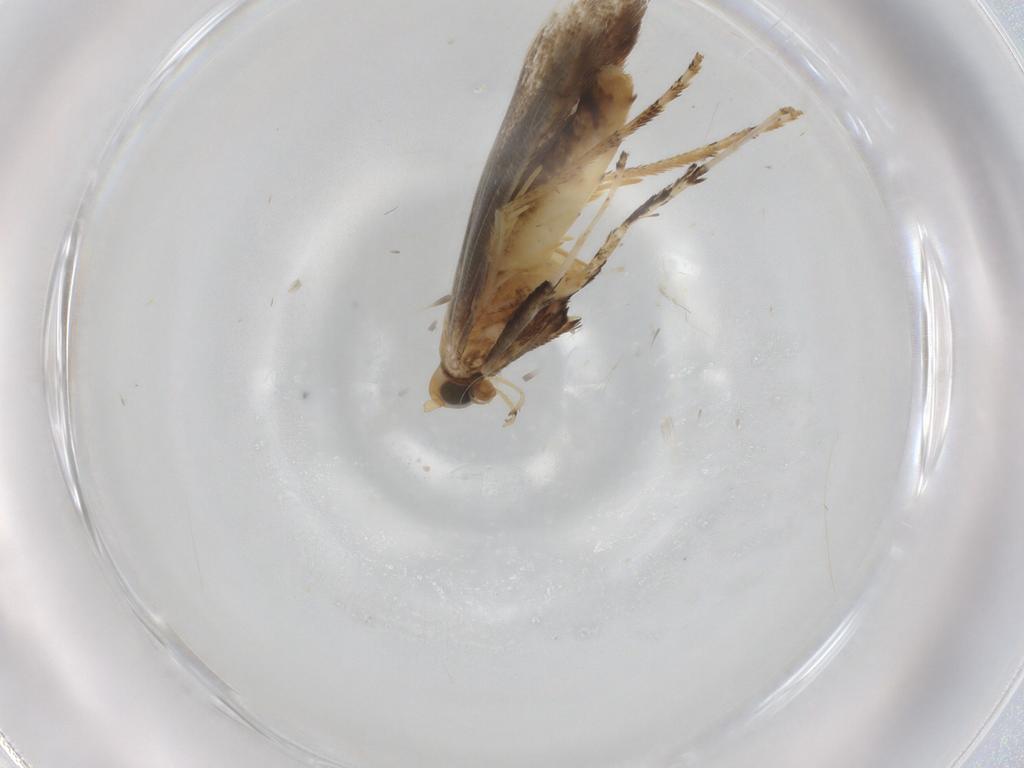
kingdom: Animalia
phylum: Arthropoda
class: Insecta
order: Lepidoptera
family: Gracillariidae
